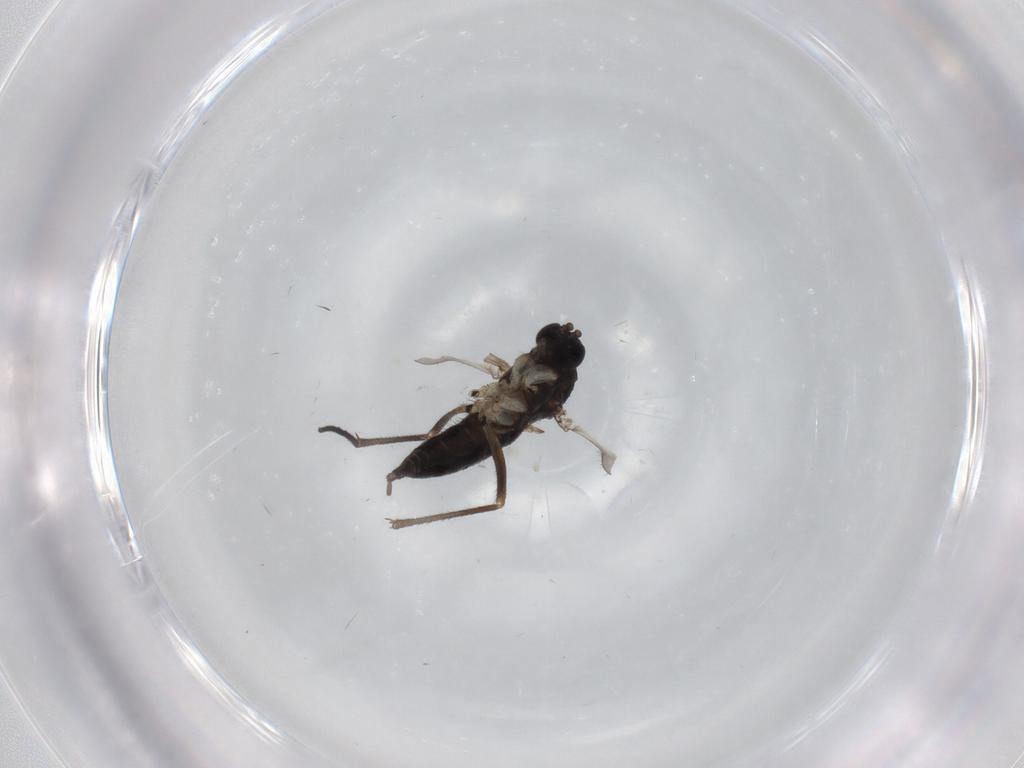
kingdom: Animalia
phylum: Arthropoda
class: Insecta
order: Diptera
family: Sciaridae
